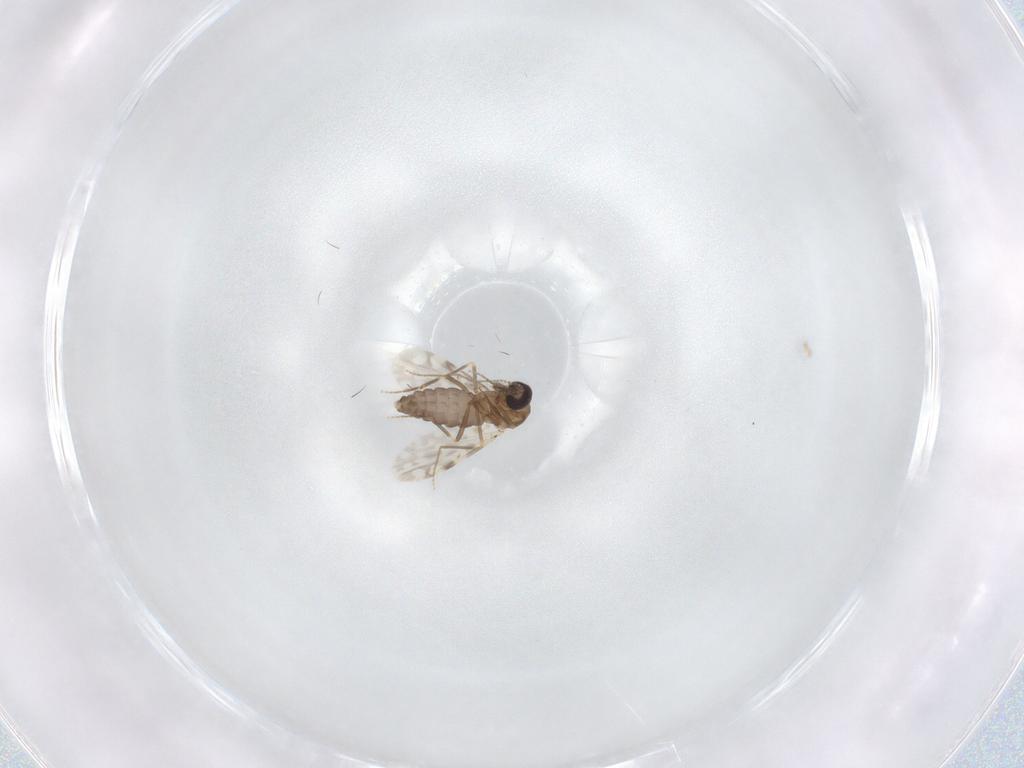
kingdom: Animalia
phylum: Arthropoda
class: Insecta
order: Diptera
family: Ceratopogonidae
